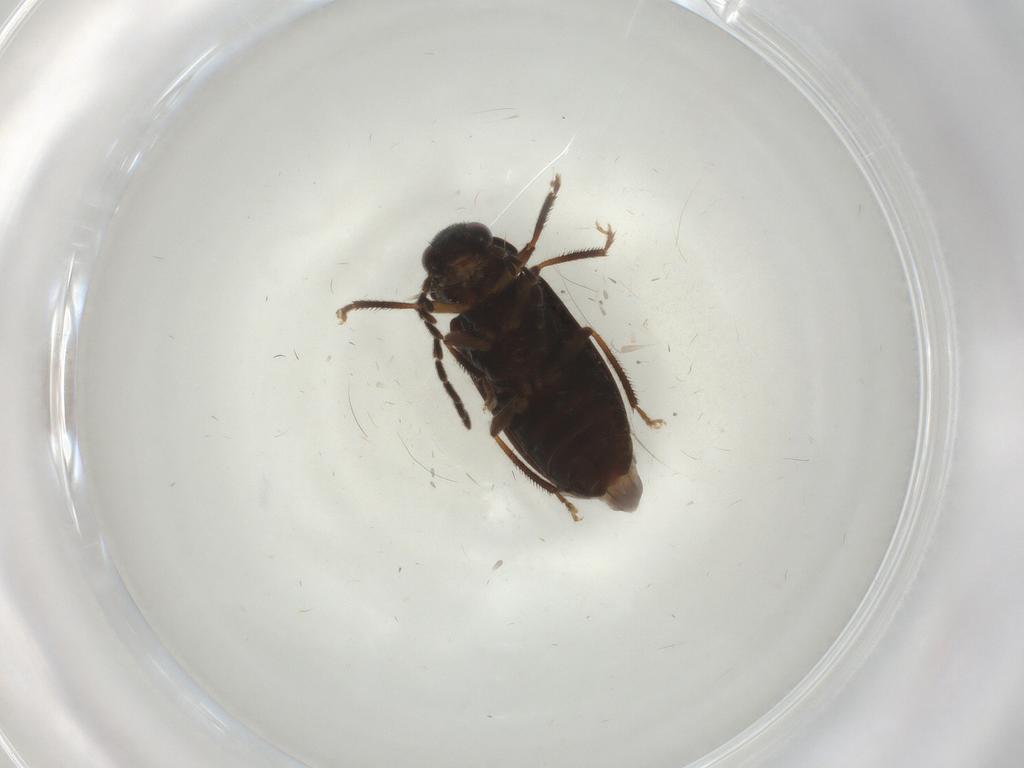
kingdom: Animalia
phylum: Arthropoda
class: Insecta
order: Coleoptera
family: Ptilodactylidae
